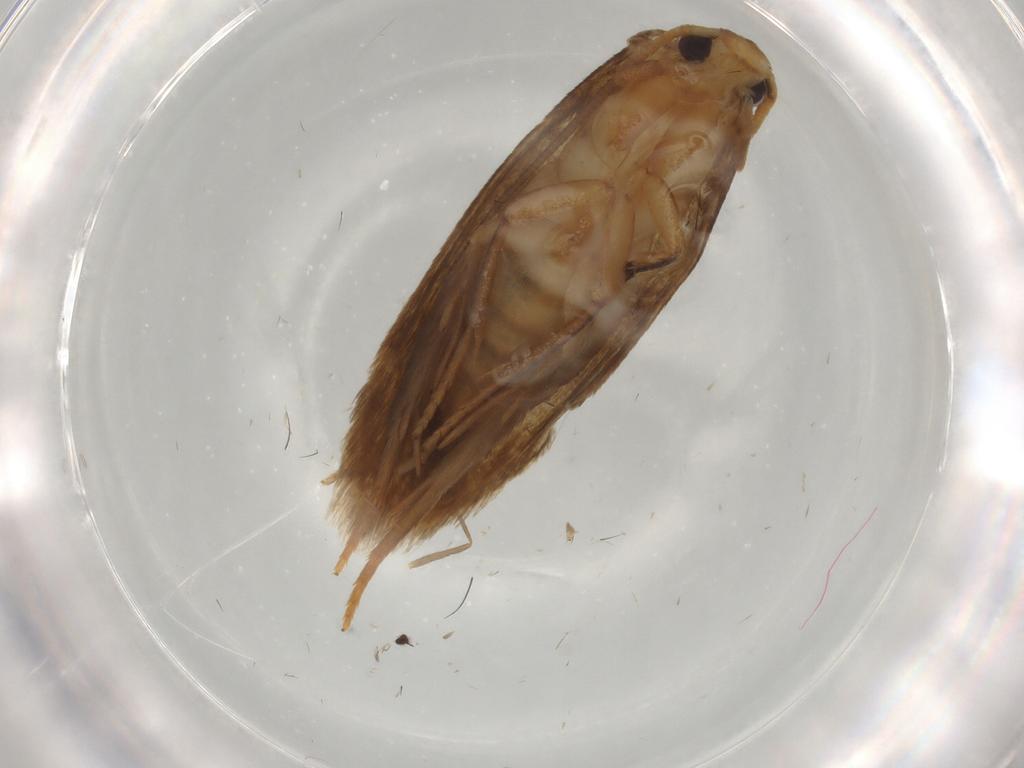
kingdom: Animalia
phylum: Arthropoda
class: Insecta
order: Lepidoptera
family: Tineidae
